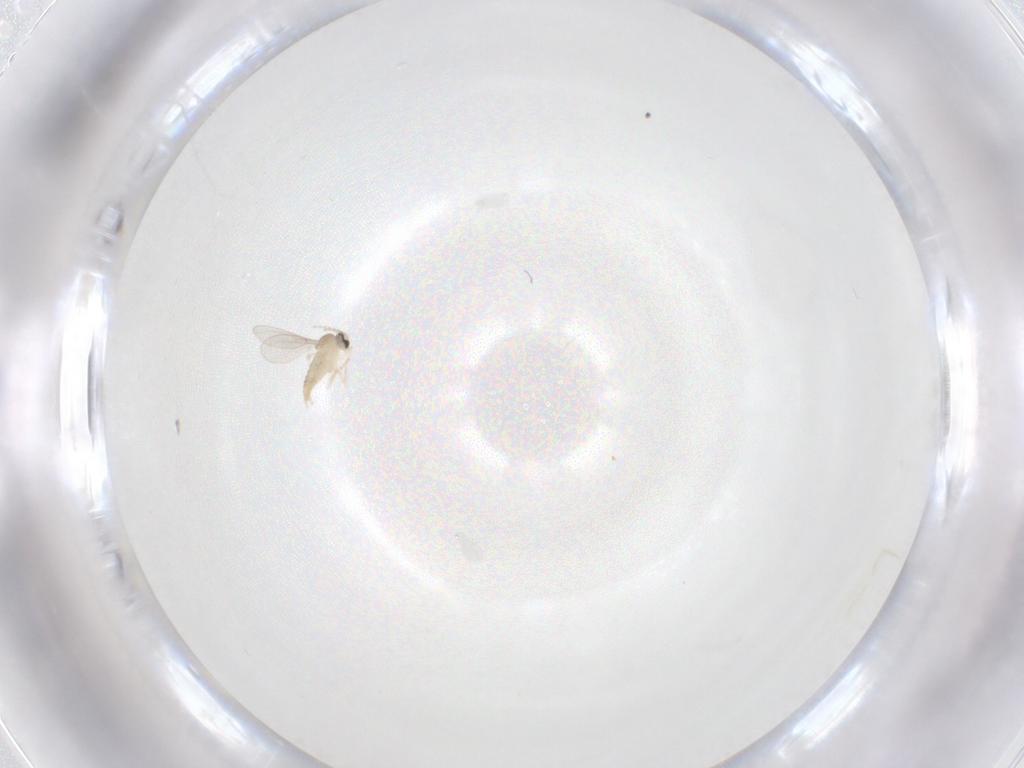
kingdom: Animalia
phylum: Arthropoda
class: Insecta
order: Diptera
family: Cecidomyiidae
